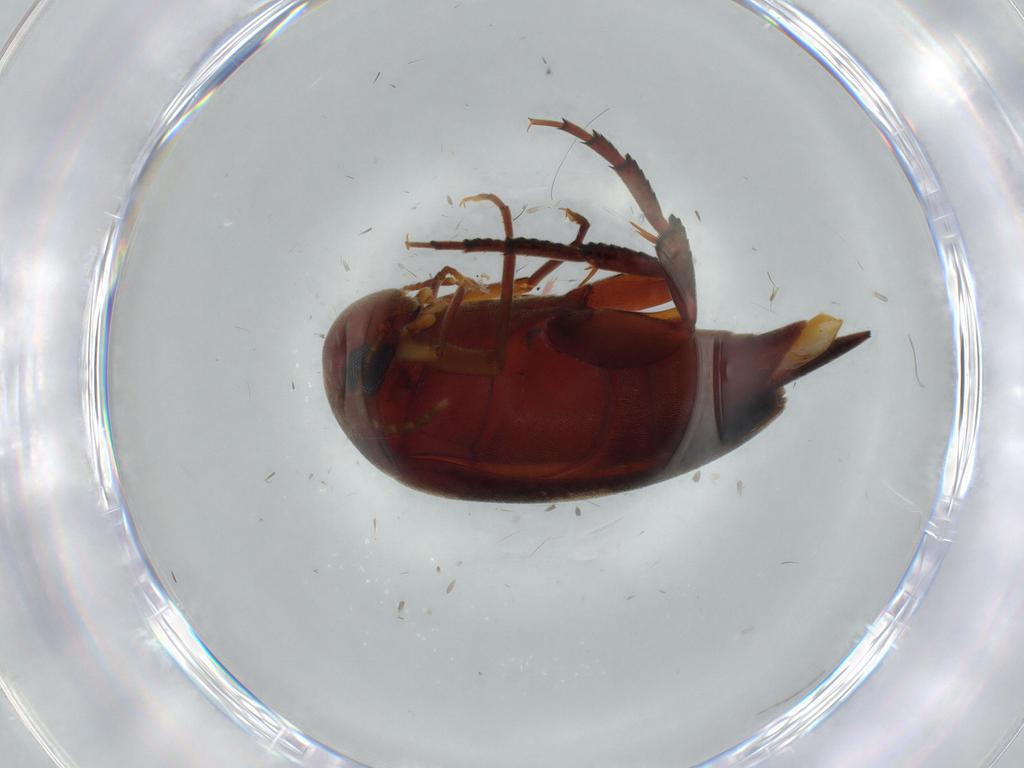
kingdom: Animalia
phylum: Arthropoda
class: Insecta
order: Coleoptera
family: Mordellidae
